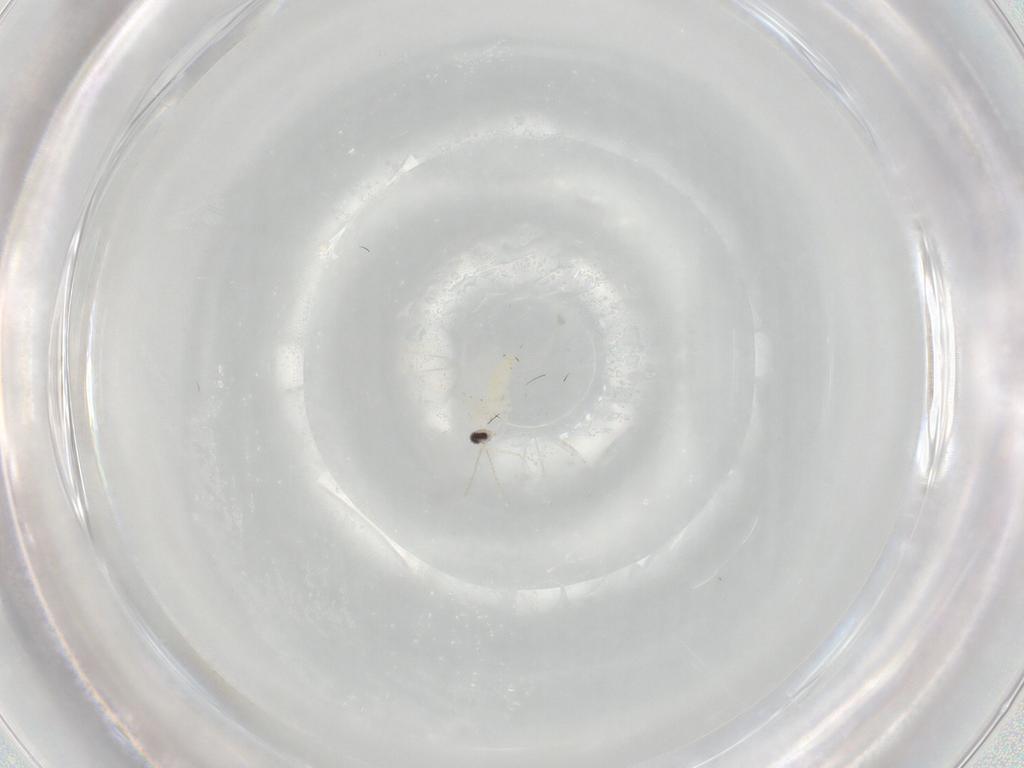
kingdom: Animalia
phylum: Arthropoda
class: Insecta
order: Diptera
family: Cecidomyiidae
